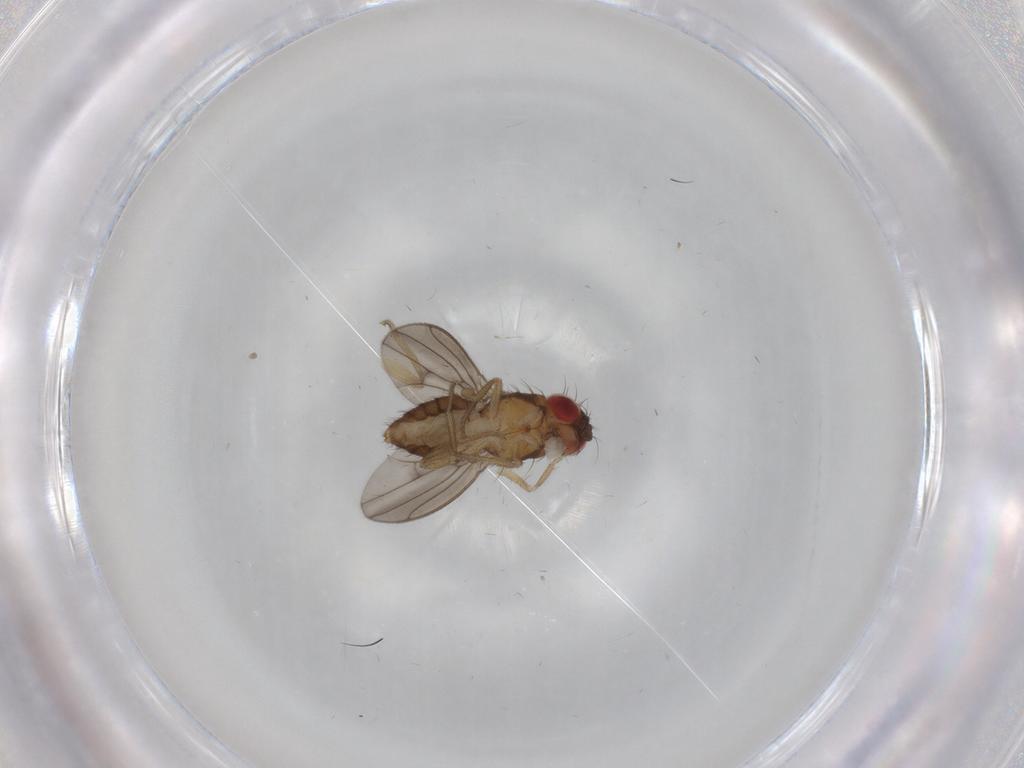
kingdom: Animalia
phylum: Arthropoda
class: Insecta
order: Diptera
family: Drosophilidae
